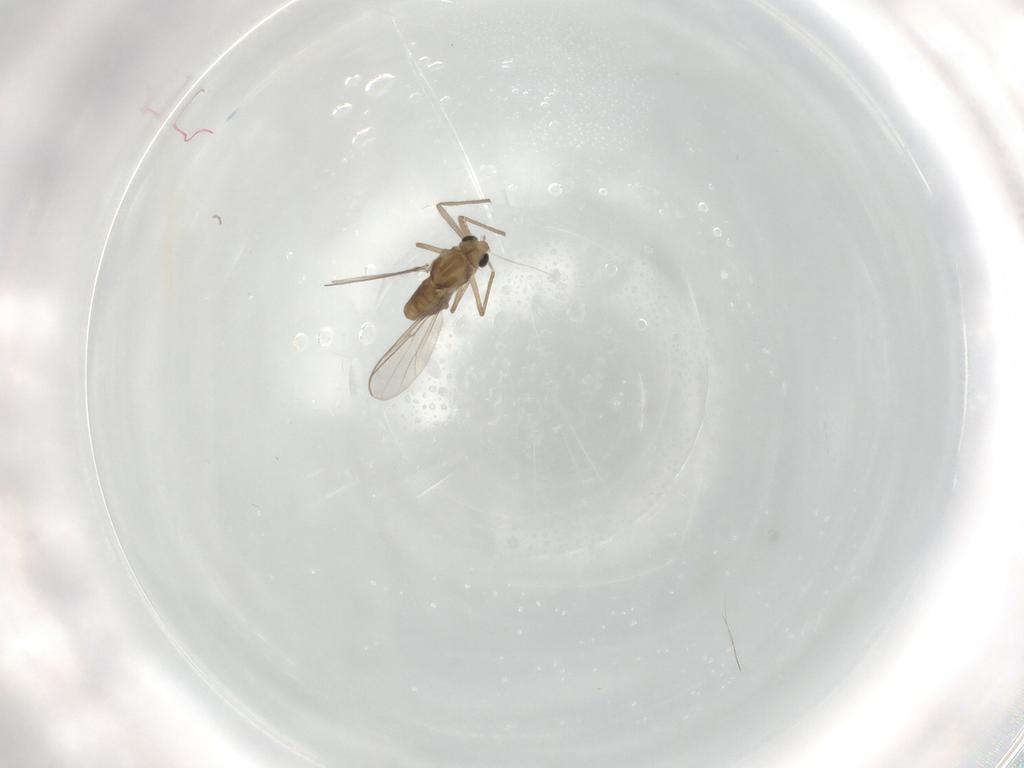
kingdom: Animalia
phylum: Arthropoda
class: Insecta
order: Diptera
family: Chironomidae
